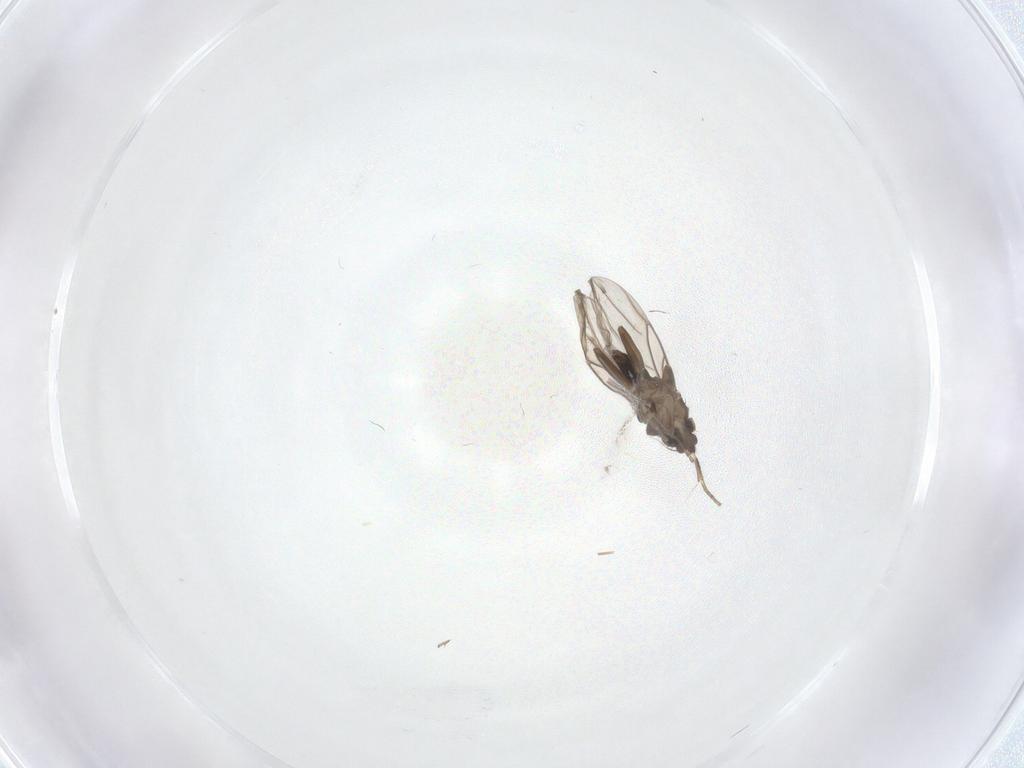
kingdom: Animalia
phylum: Arthropoda
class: Insecta
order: Diptera
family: Phoridae
